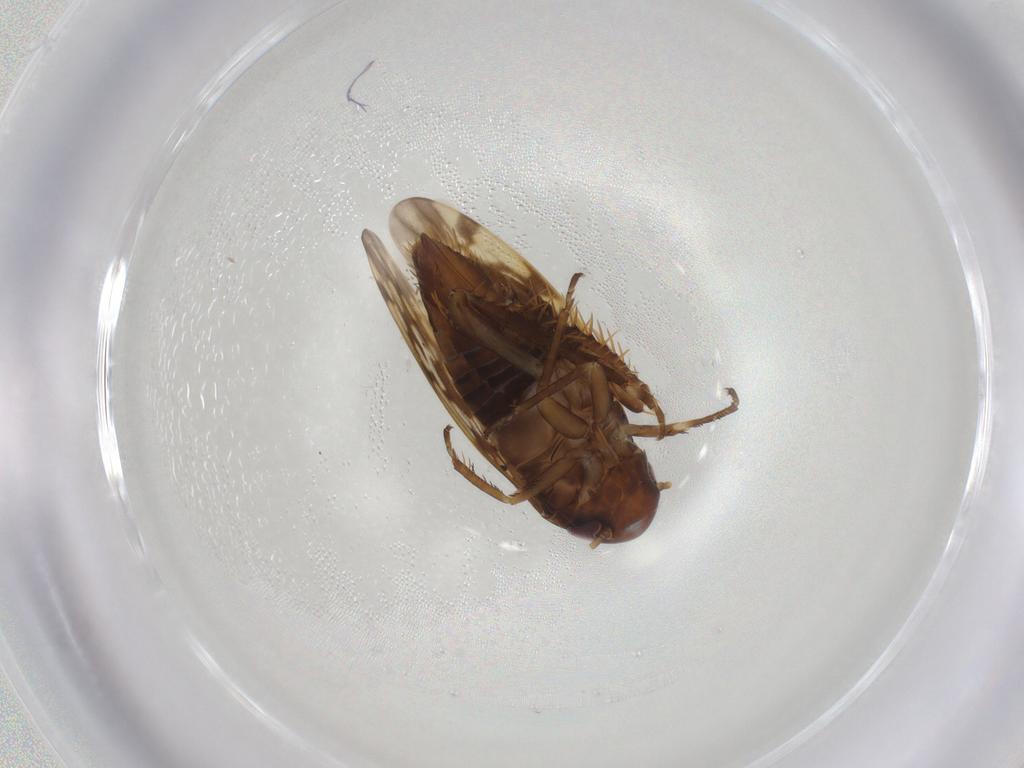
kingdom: Animalia
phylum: Arthropoda
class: Insecta
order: Hemiptera
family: Cicadellidae
